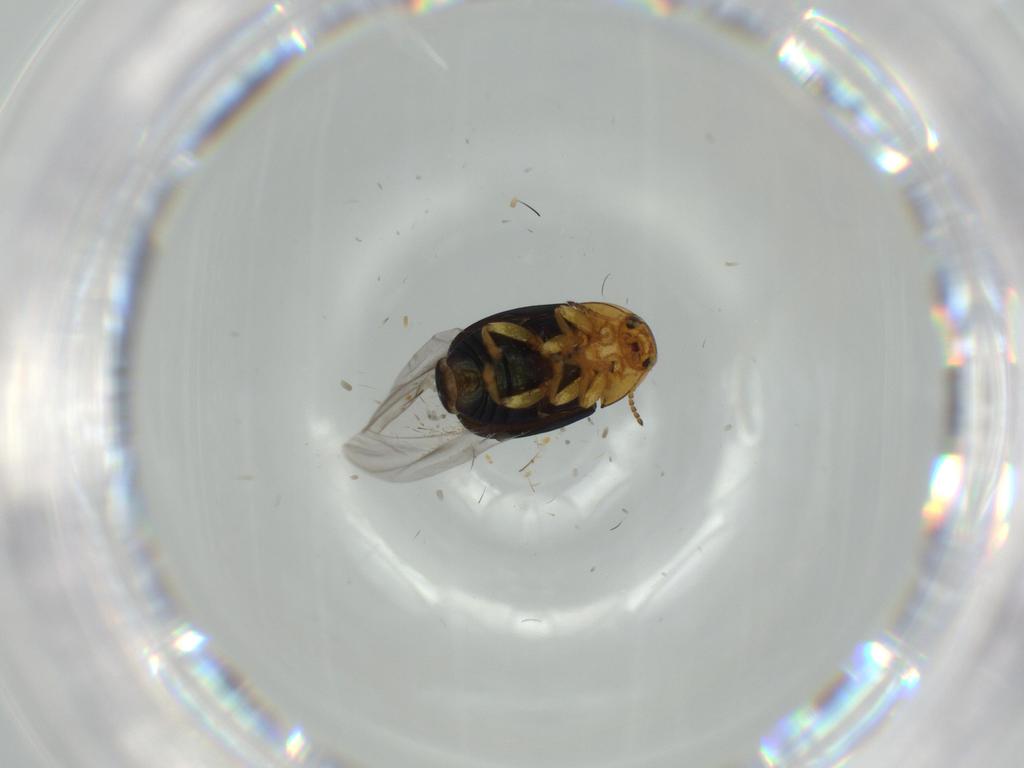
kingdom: Animalia
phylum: Arthropoda
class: Insecta
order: Coleoptera
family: Chrysomelidae
